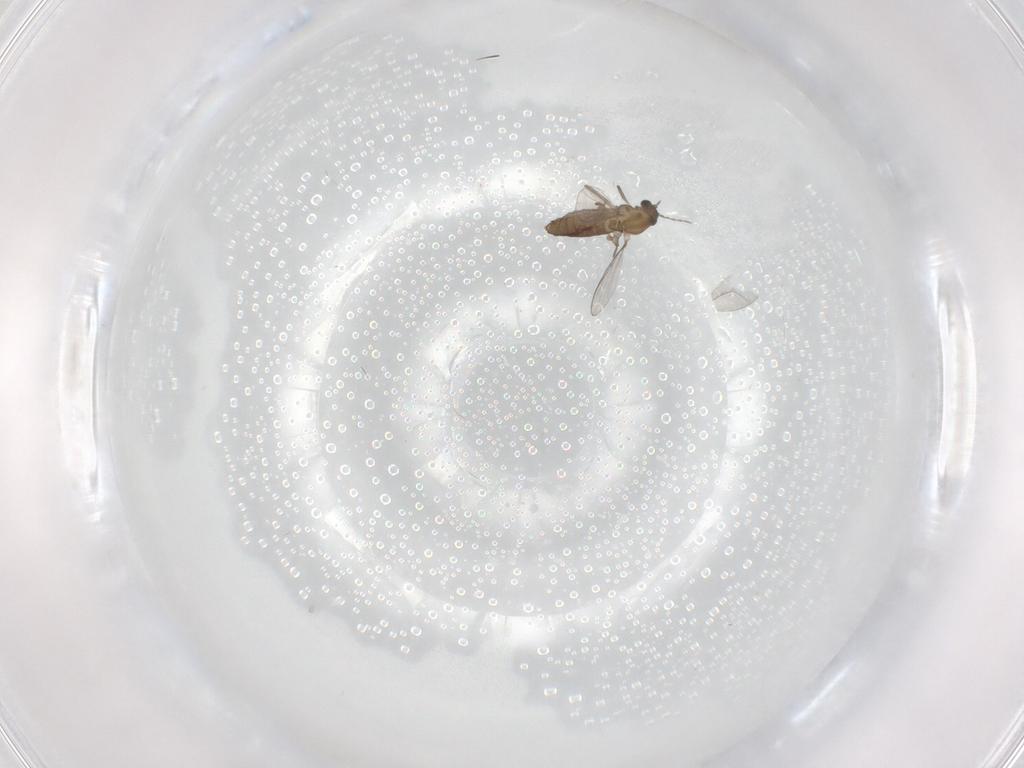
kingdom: Animalia
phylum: Arthropoda
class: Insecta
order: Diptera
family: Chironomidae
